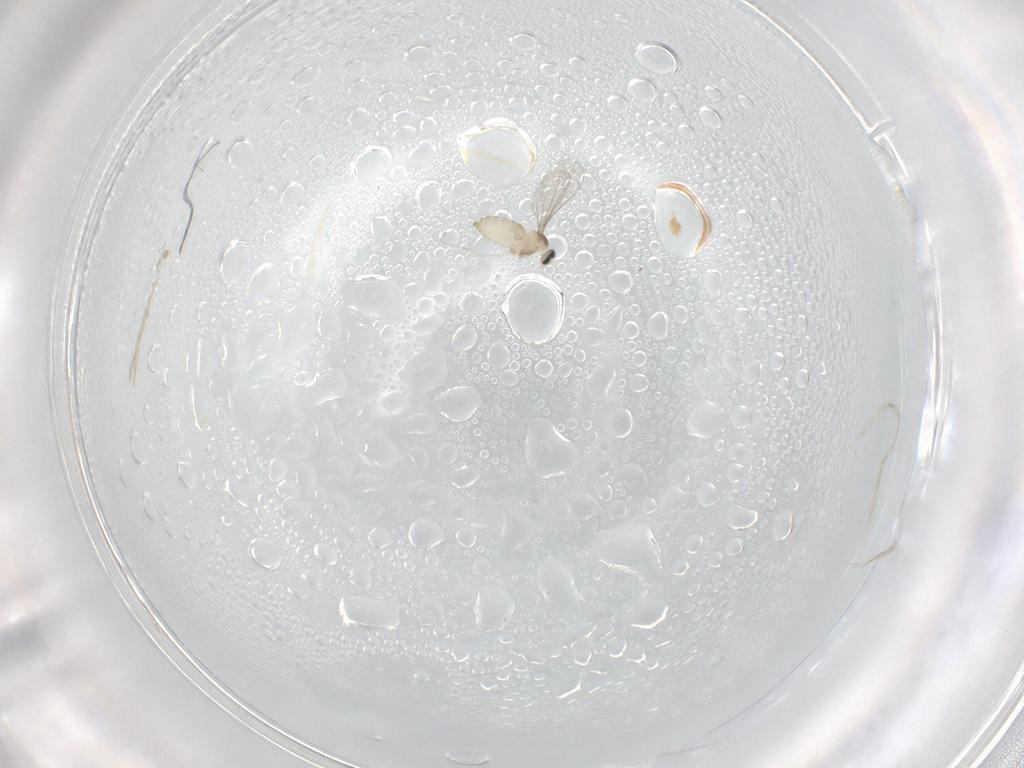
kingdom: Animalia
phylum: Arthropoda
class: Insecta
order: Diptera
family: Cecidomyiidae
